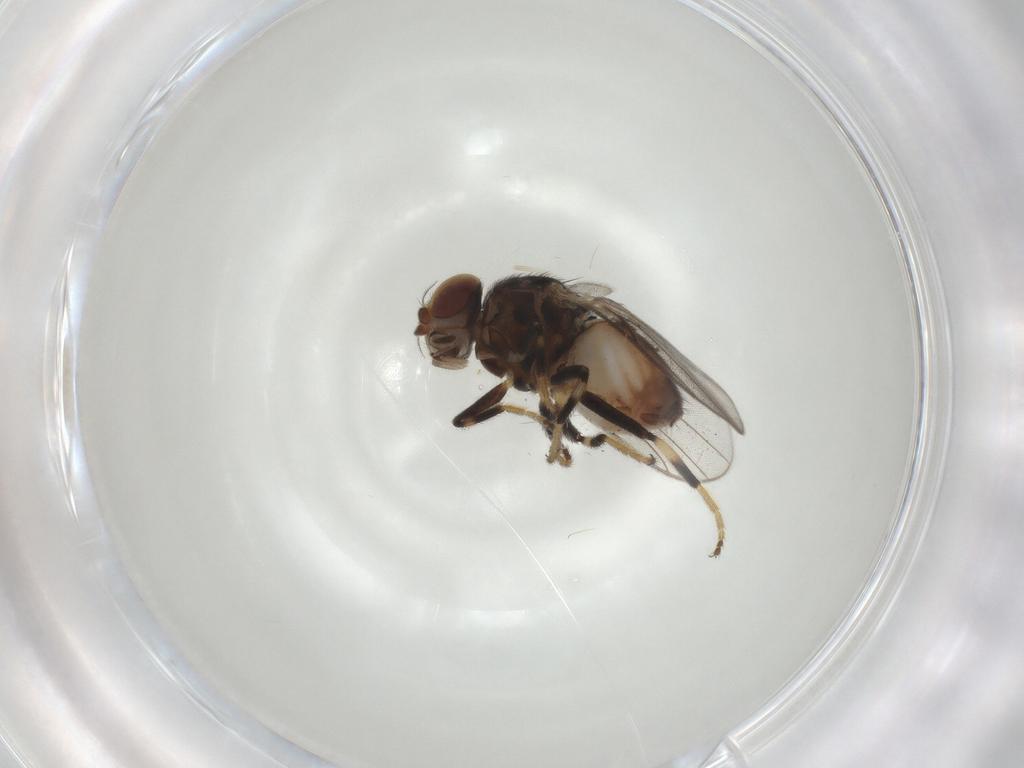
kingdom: Animalia
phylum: Arthropoda
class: Insecta
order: Diptera
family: Chloropidae
